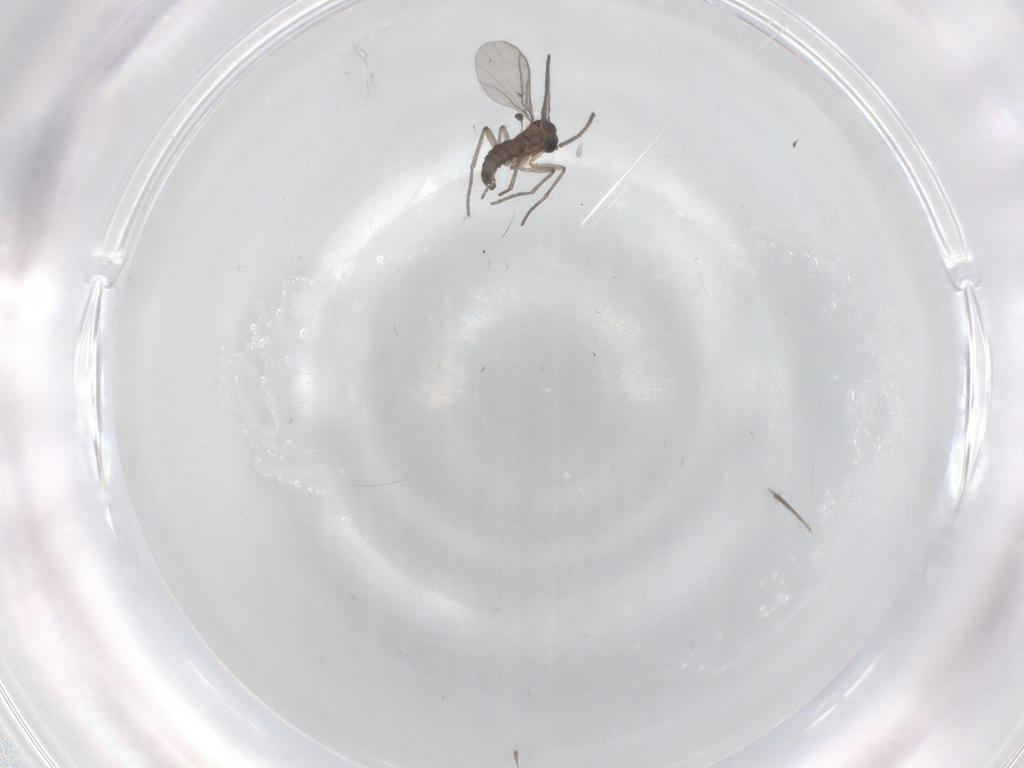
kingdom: Animalia
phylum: Arthropoda
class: Insecta
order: Diptera
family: Ceratopogonidae
